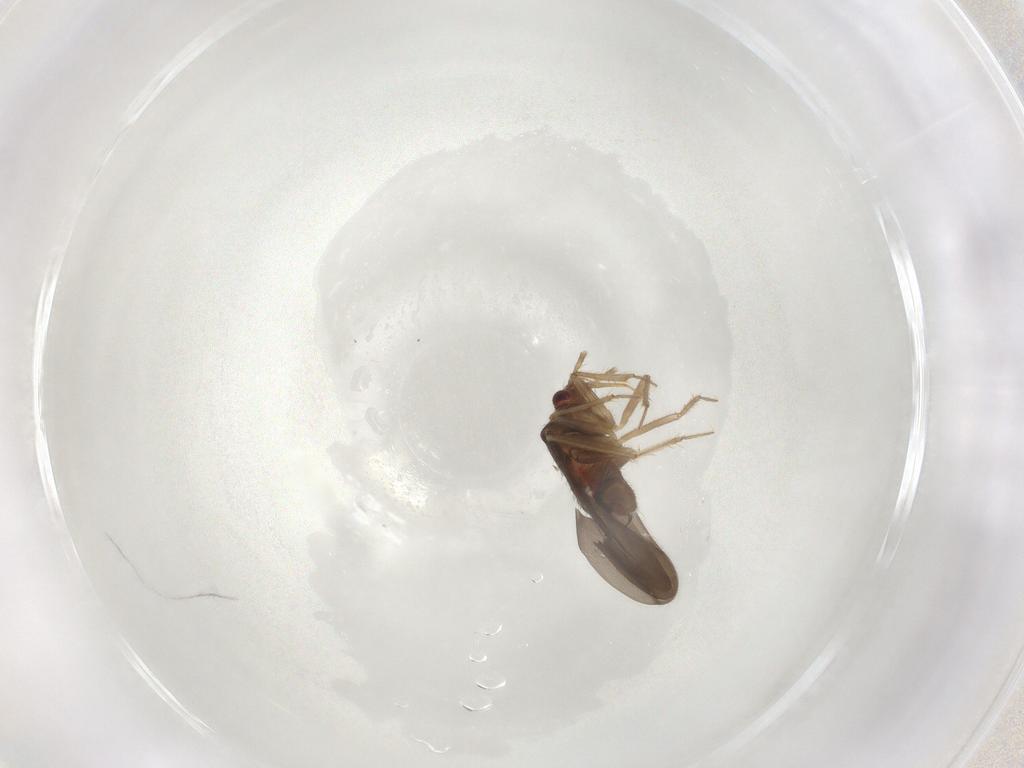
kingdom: Animalia
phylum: Arthropoda
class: Insecta
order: Hemiptera
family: Ceratocombidae
